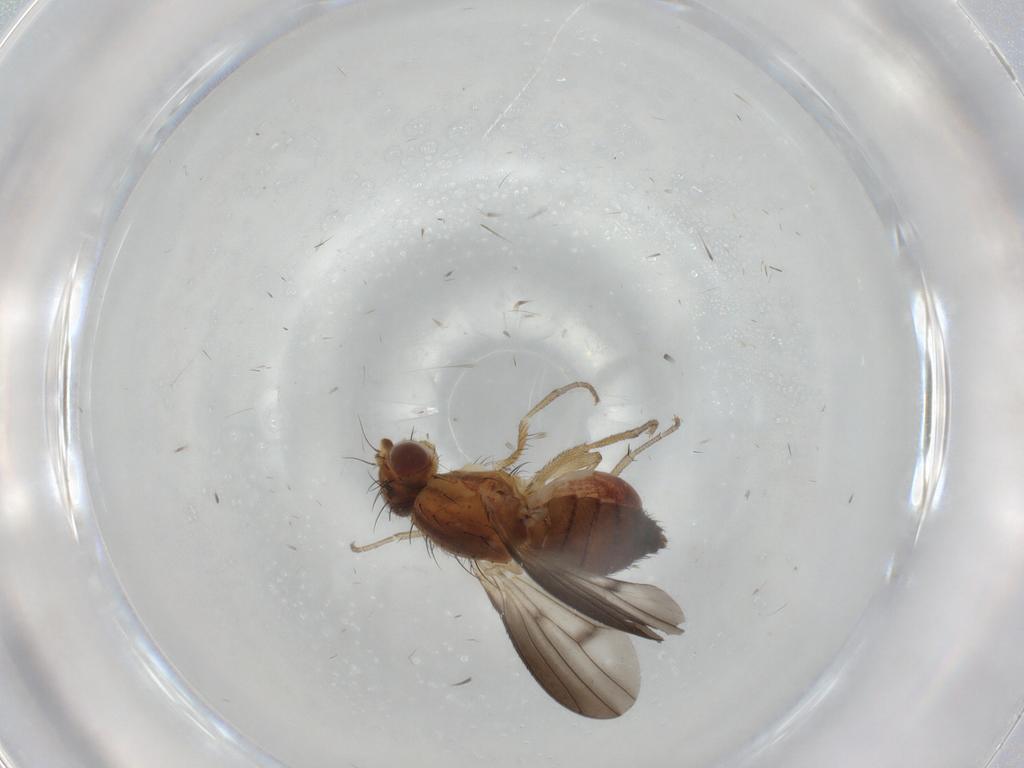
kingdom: Animalia
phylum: Arthropoda
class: Insecta
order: Diptera
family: Heleomyzidae
